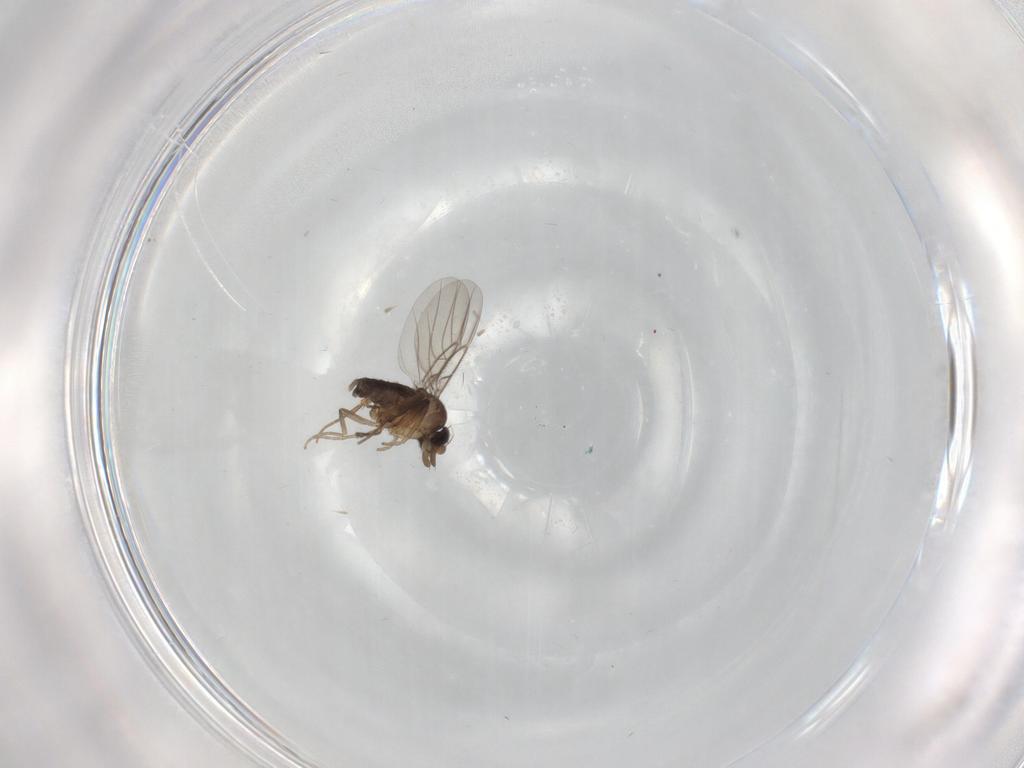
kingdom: Animalia
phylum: Arthropoda
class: Insecta
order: Diptera
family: Phoridae
